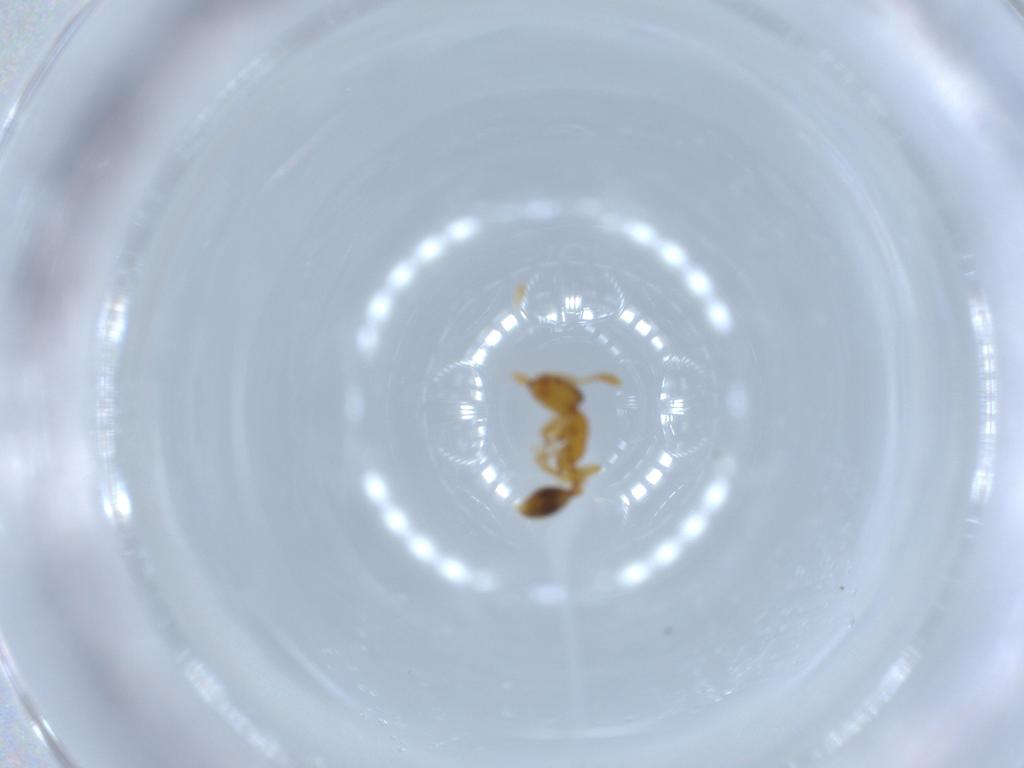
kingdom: Animalia
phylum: Arthropoda
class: Insecta
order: Hymenoptera
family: Formicidae
